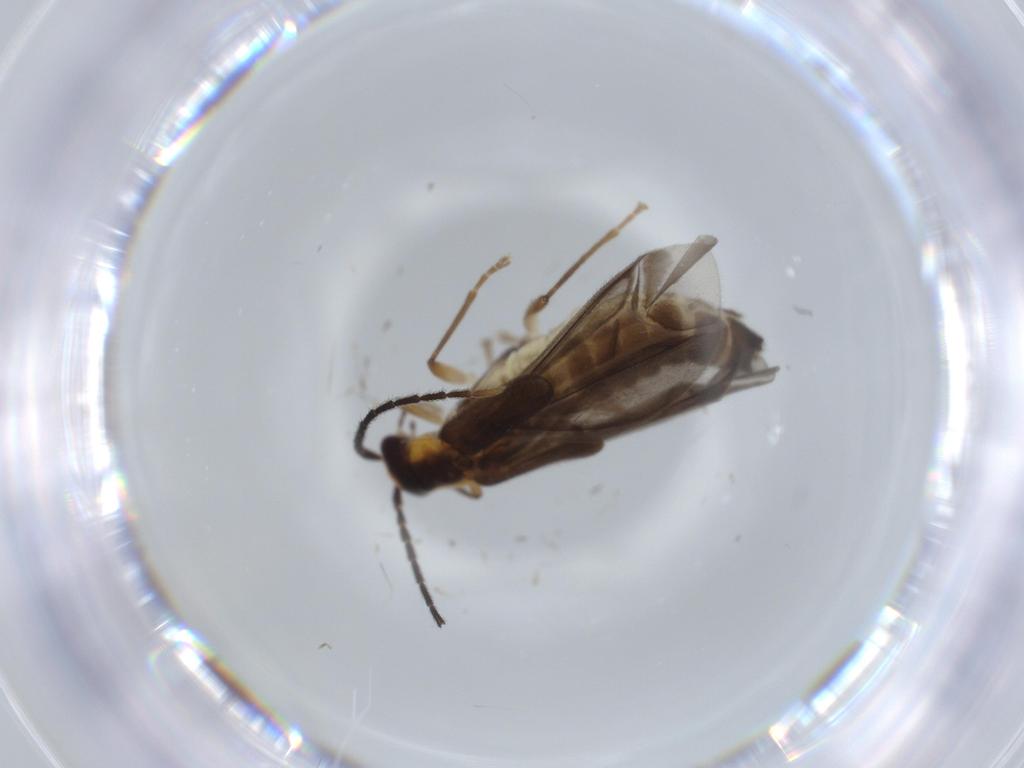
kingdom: Animalia
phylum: Arthropoda
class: Insecta
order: Coleoptera
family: Cantharidae
